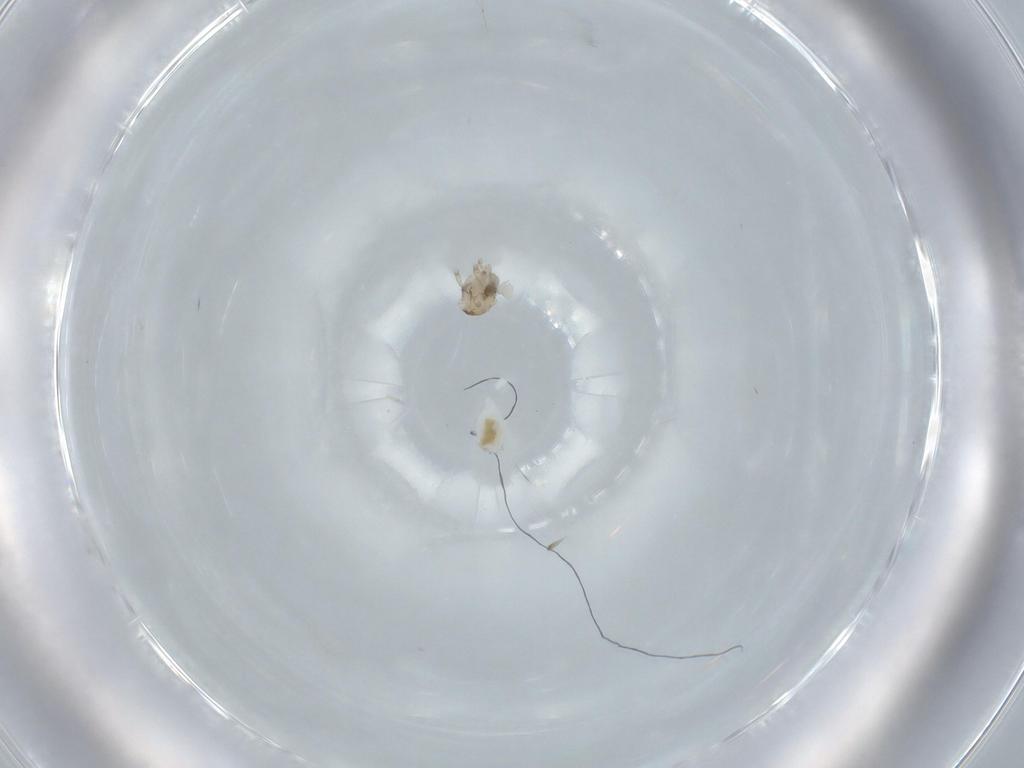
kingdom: Animalia
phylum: Arthropoda
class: Insecta
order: Diptera
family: Cecidomyiidae
